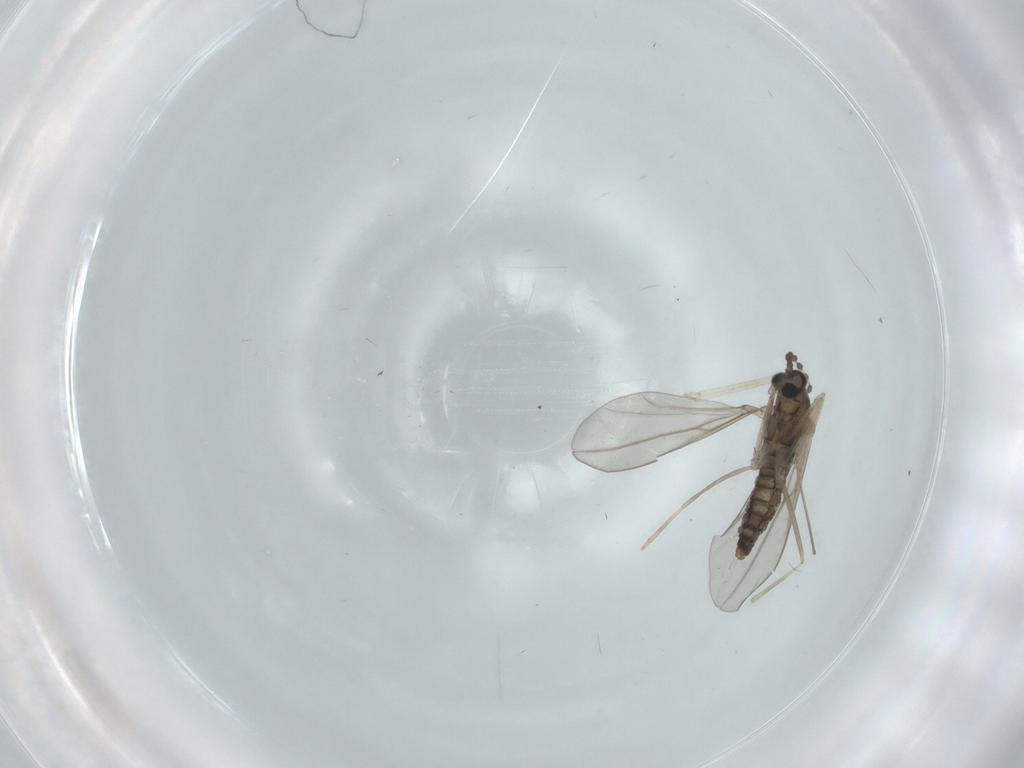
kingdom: Animalia
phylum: Arthropoda
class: Insecta
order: Diptera
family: Cecidomyiidae
